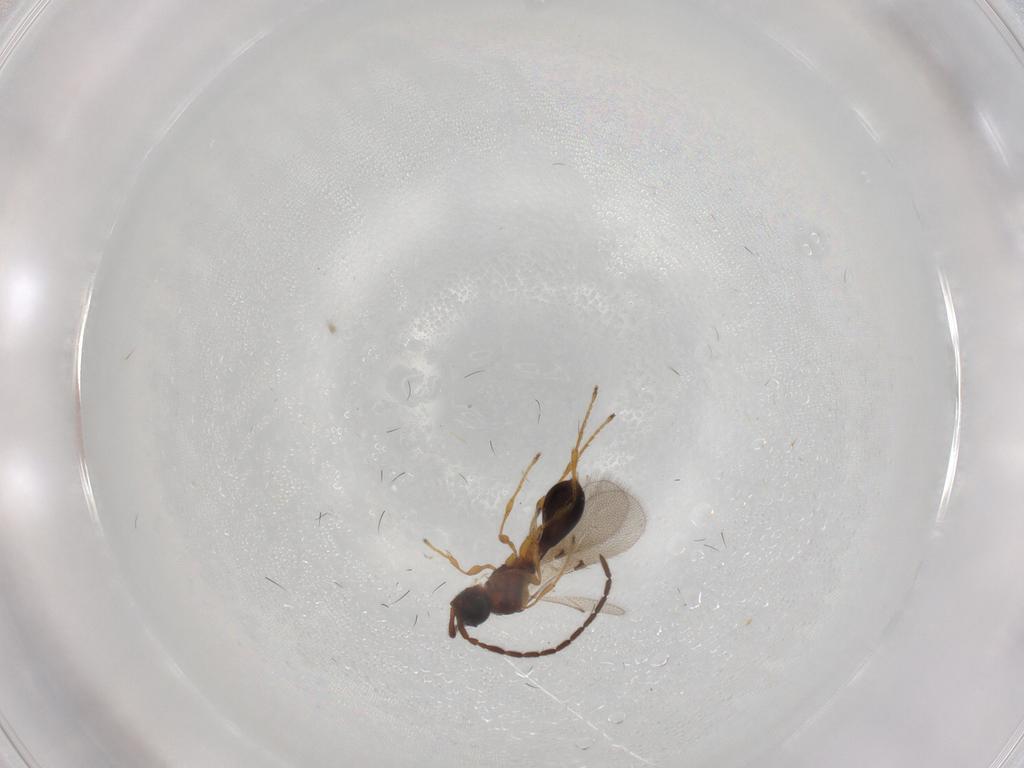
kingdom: Animalia
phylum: Arthropoda
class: Insecta
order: Hymenoptera
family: Diapriidae
